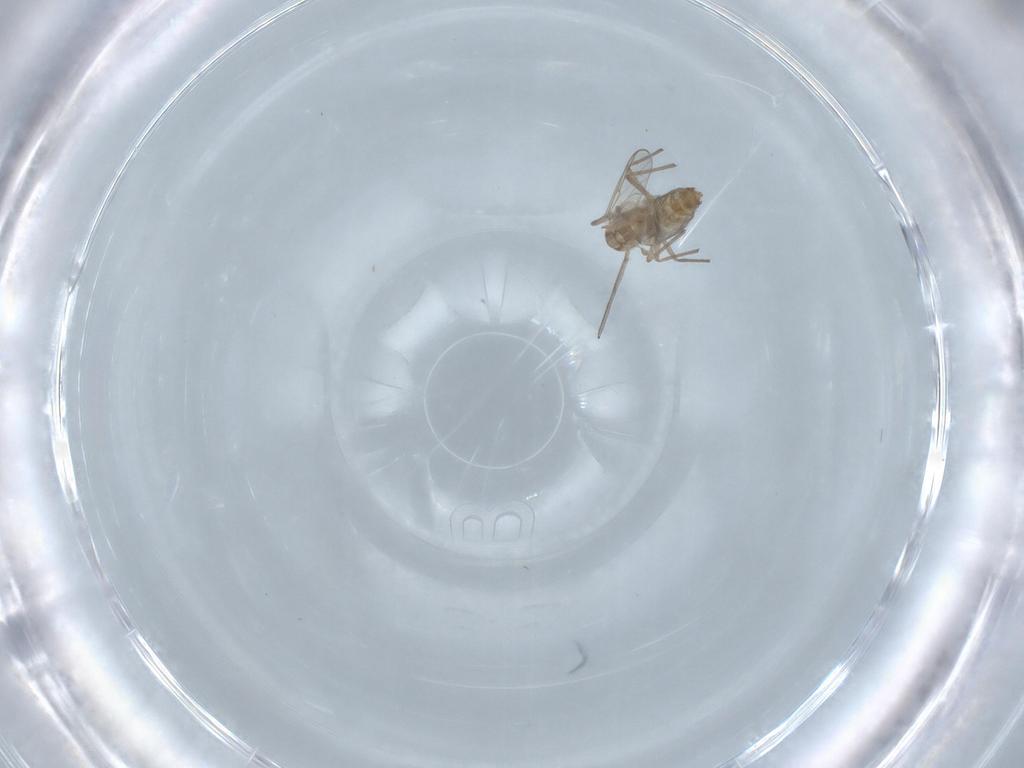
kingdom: Animalia
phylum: Arthropoda
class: Insecta
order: Diptera
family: Chironomidae
